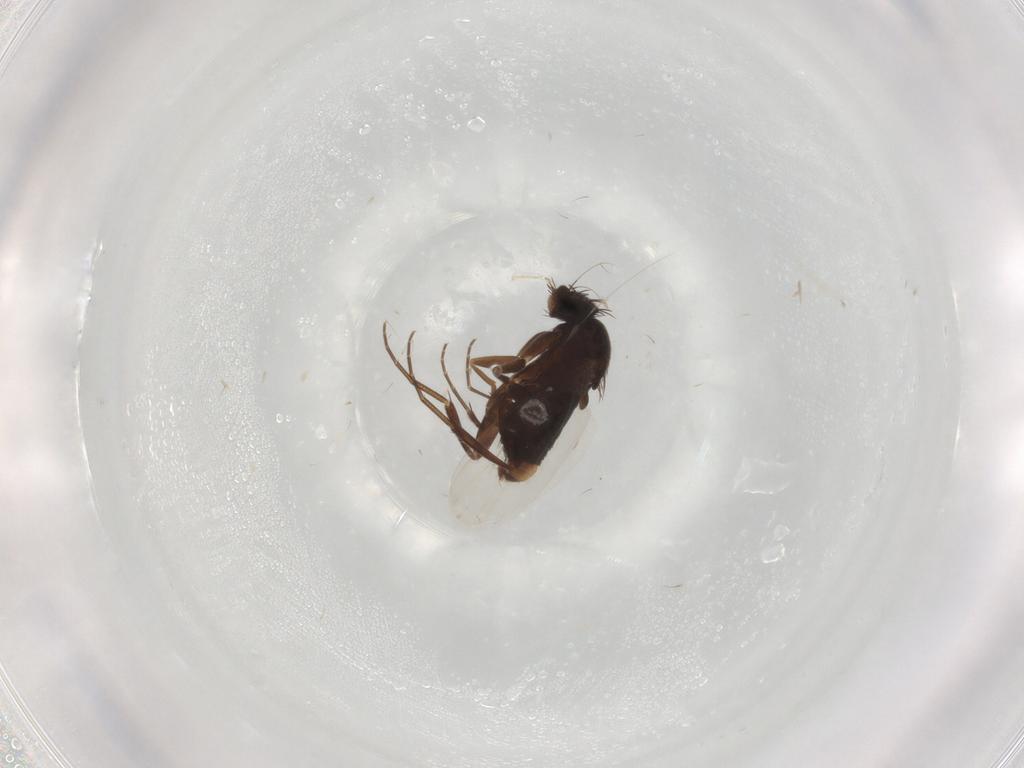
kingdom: Animalia
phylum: Arthropoda
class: Insecta
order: Diptera
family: Phoridae
